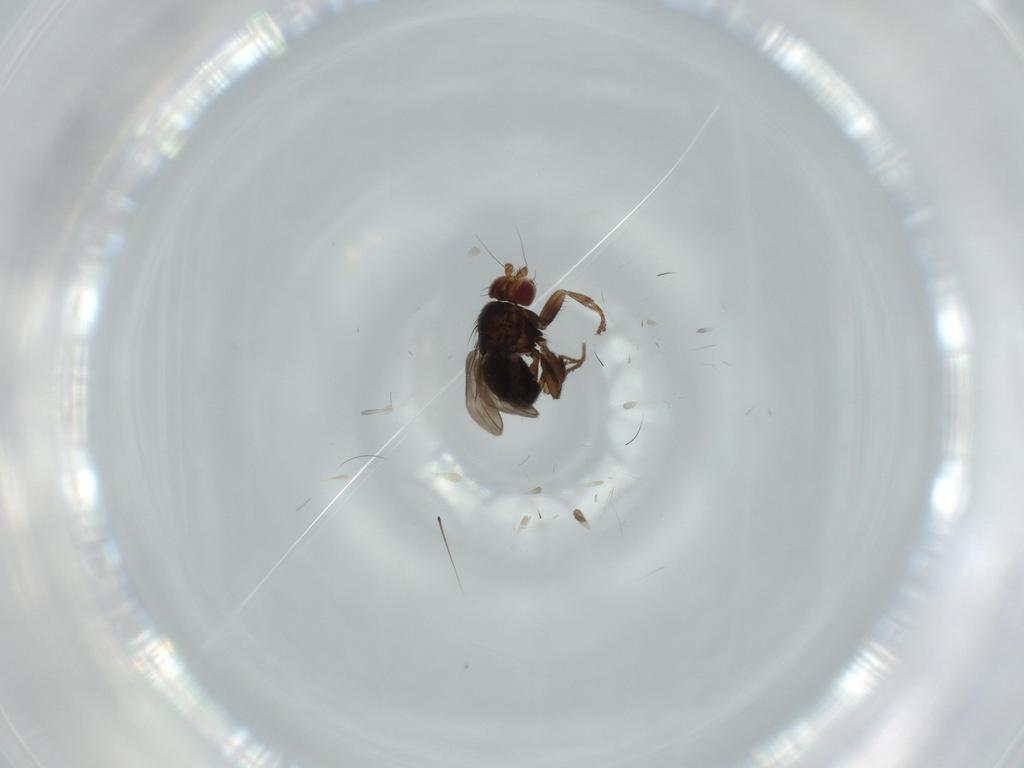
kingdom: Animalia
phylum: Arthropoda
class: Insecta
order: Diptera
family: Sphaeroceridae
